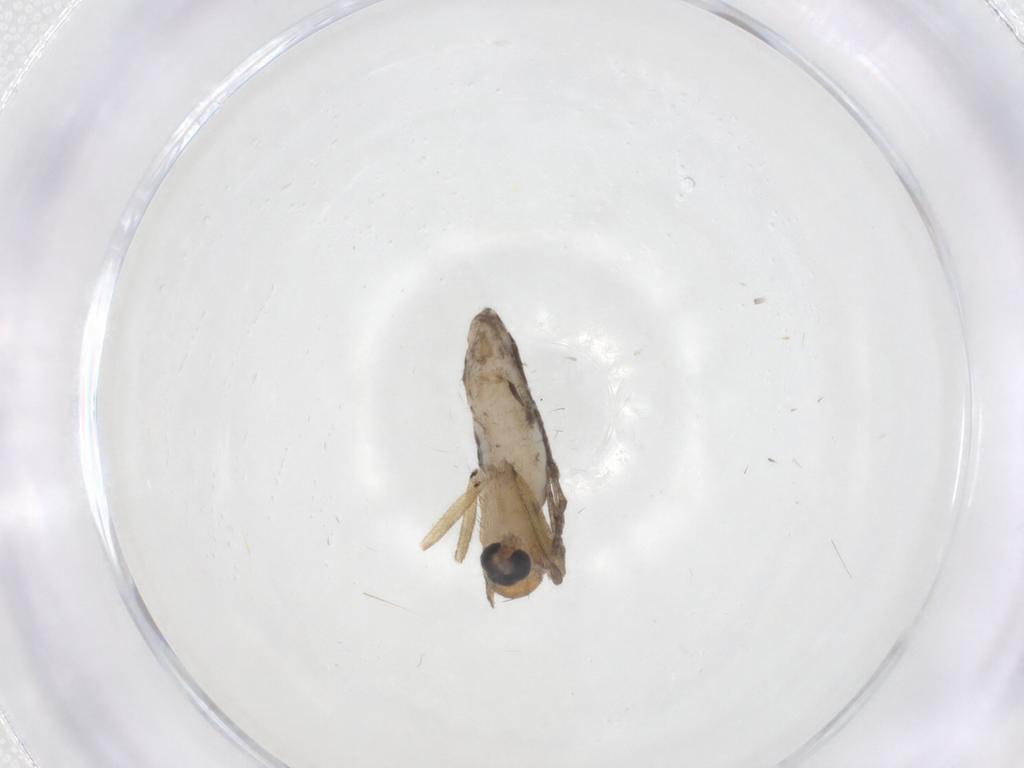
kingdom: Animalia
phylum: Arthropoda
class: Insecta
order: Diptera
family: Sciaridae
